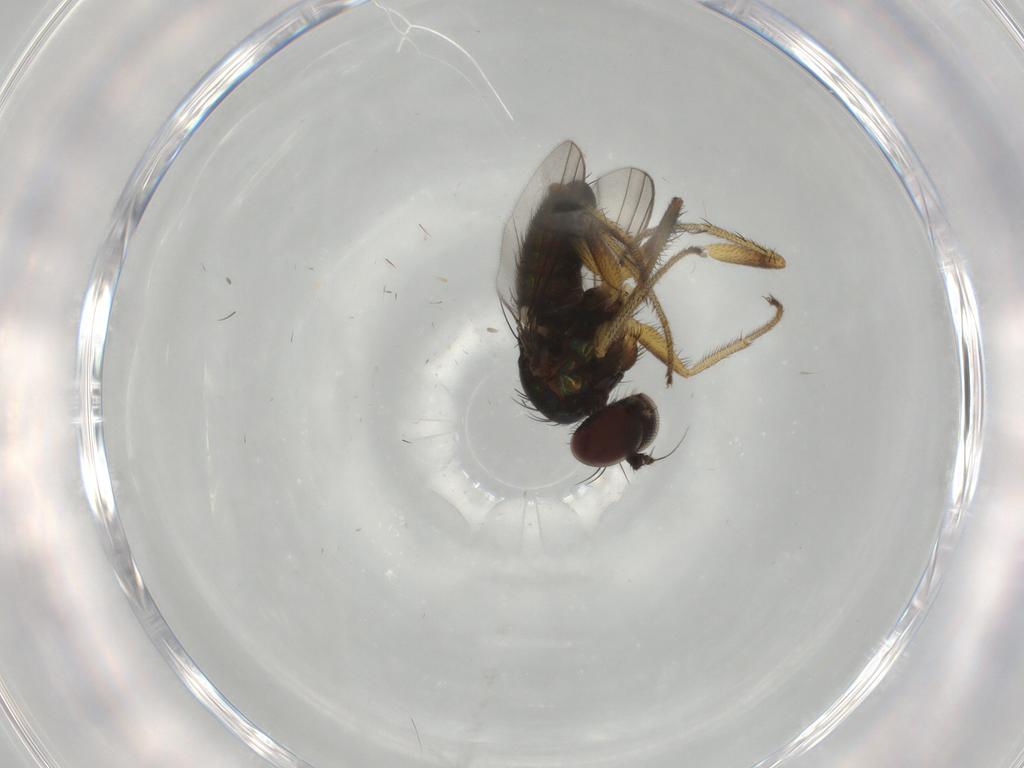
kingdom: Animalia
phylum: Arthropoda
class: Insecta
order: Diptera
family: Dolichopodidae
